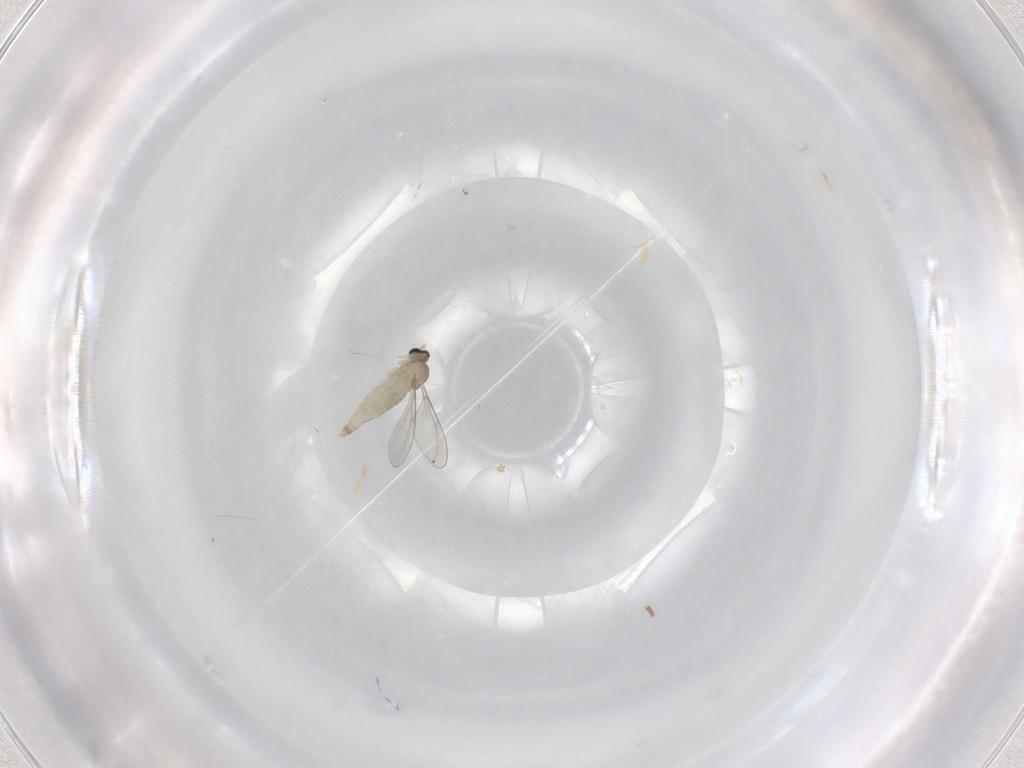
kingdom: Animalia
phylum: Arthropoda
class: Insecta
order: Diptera
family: Cecidomyiidae
